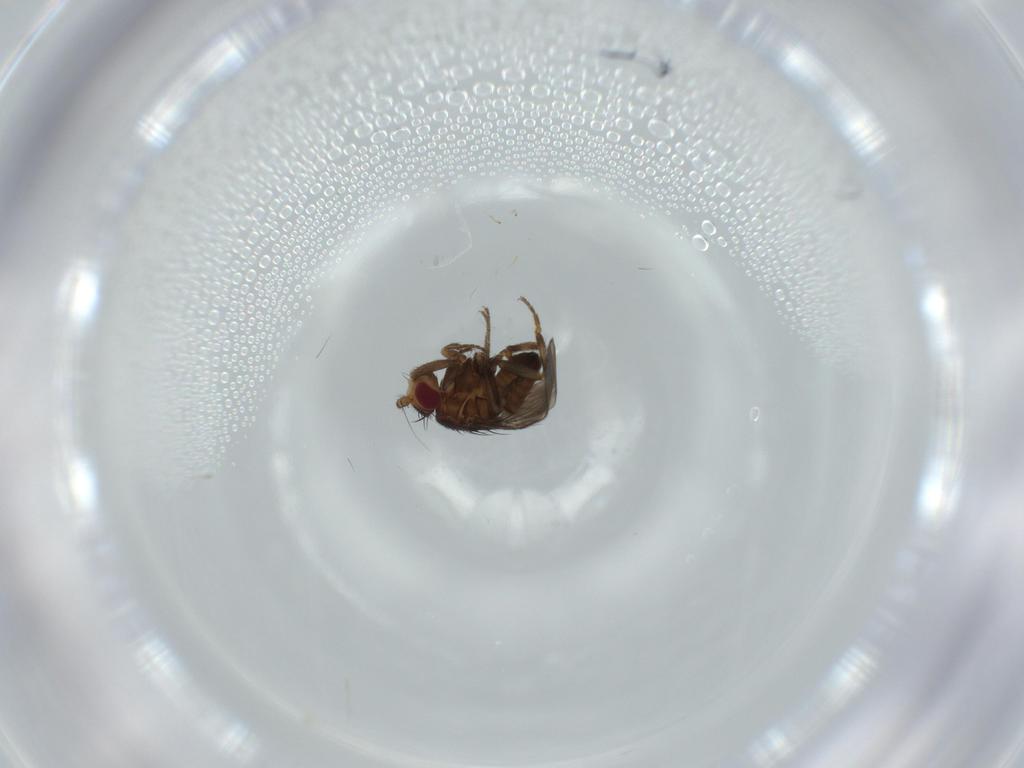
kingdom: Animalia
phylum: Arthropoda
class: Insecta
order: Diptera
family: Sphaeroceridae
